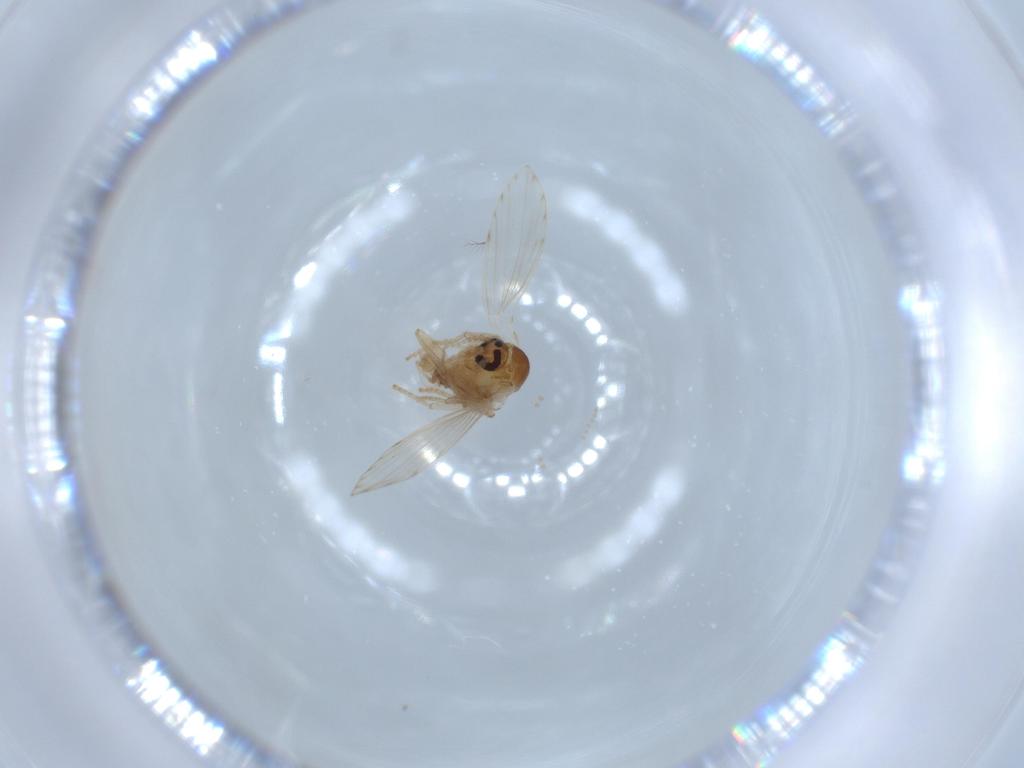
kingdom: Animalia
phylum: Arthropoda
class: Insecta
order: Diptera
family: Psychodidae
